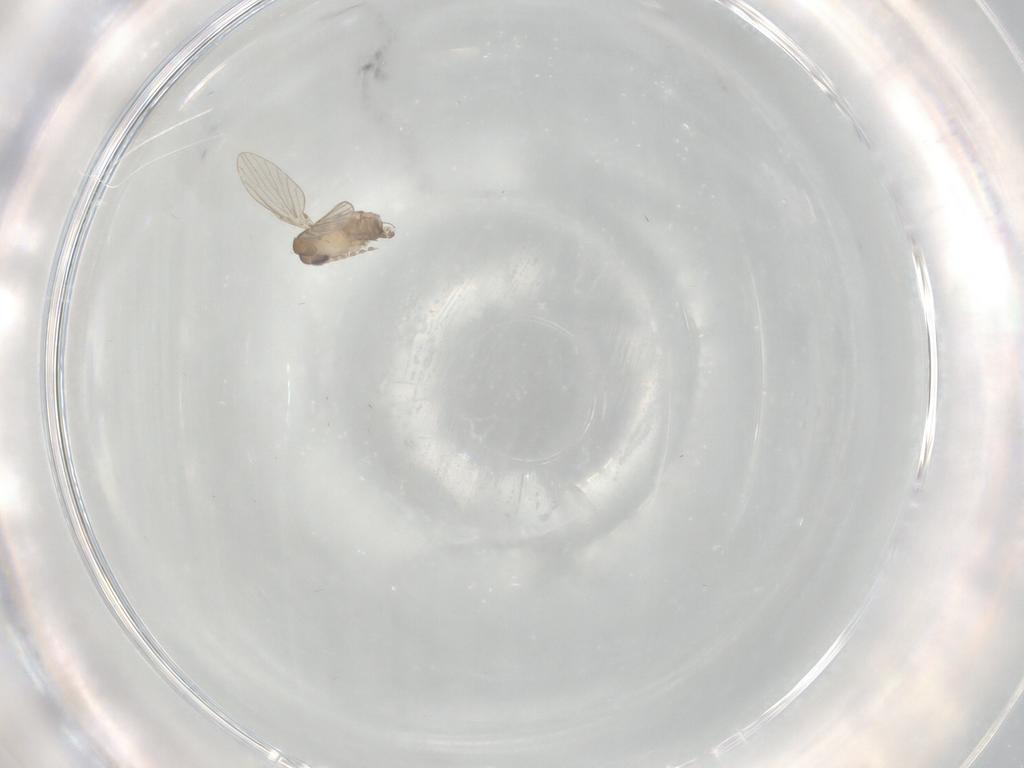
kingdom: Animalia
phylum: Arthropoda
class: Insecta
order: Diptera
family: Psychodidae
